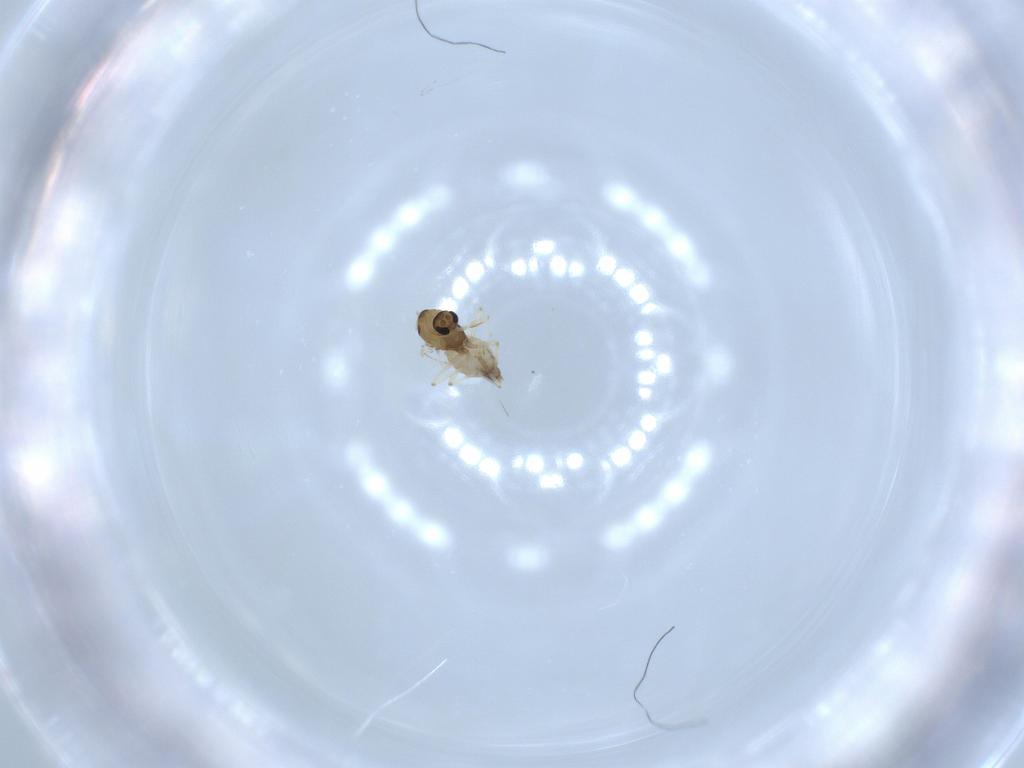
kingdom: Animalia
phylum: Arthropoda
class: Insecta
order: Diptera
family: Chironomidae
